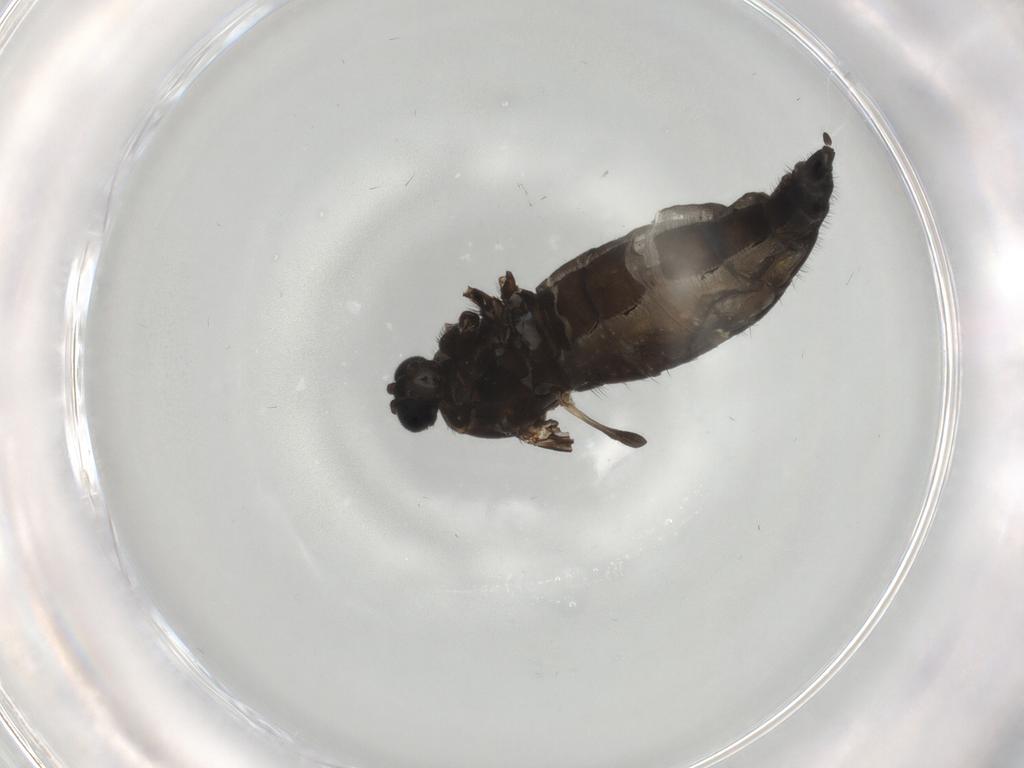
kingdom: Animalia
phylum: Arthropoda
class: Insecta
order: Diptera
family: Sciaridae
